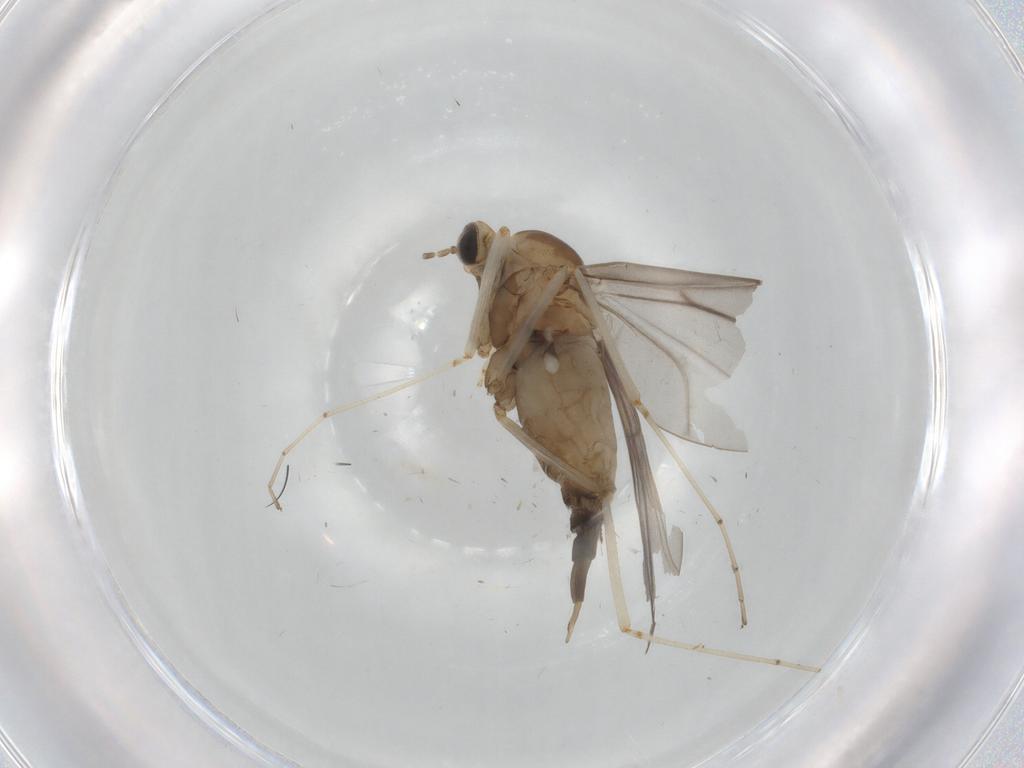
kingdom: Animalia
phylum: Arthropoda
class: Insecta
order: Diptera
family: Cecidomyiidae
